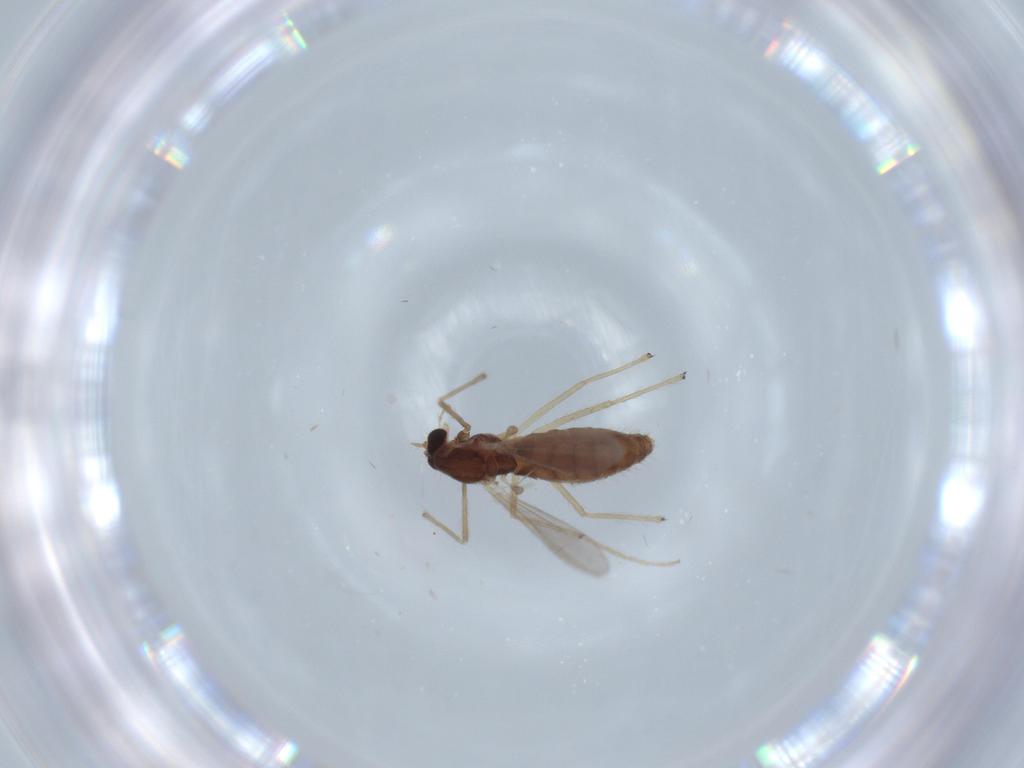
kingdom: Animalia
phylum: Arthropoda
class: Insecta
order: Diptera
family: Chironomidae
